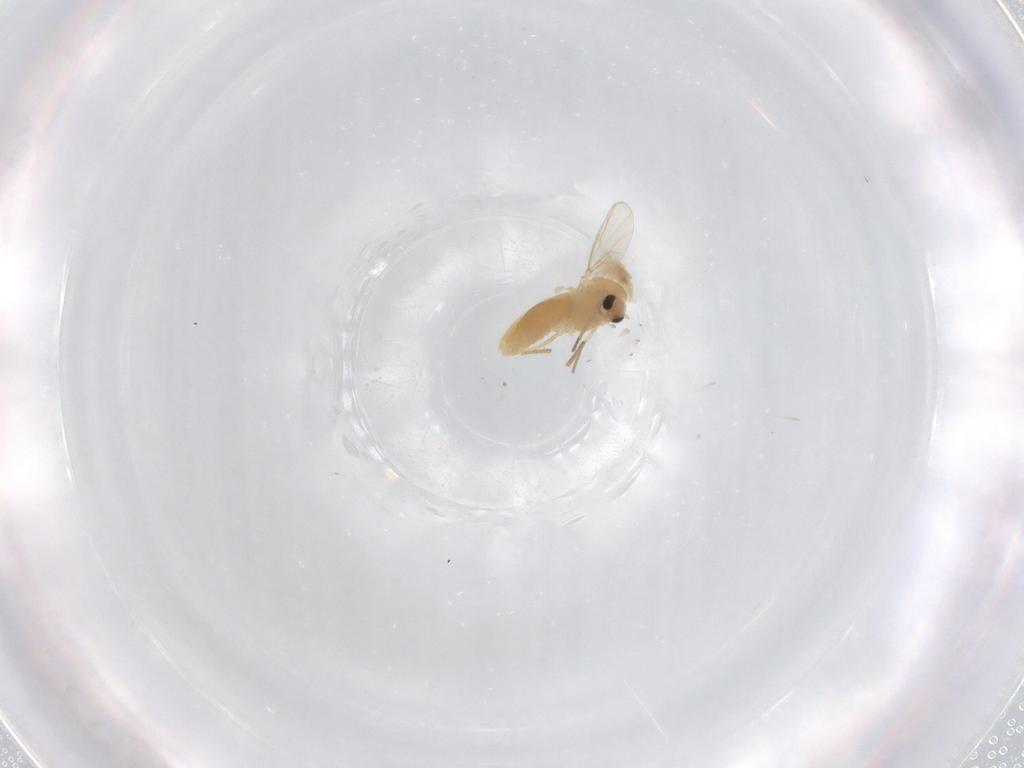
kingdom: Animalia
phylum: Arthropoda
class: Insecta
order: Diptera
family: Chironomidae
